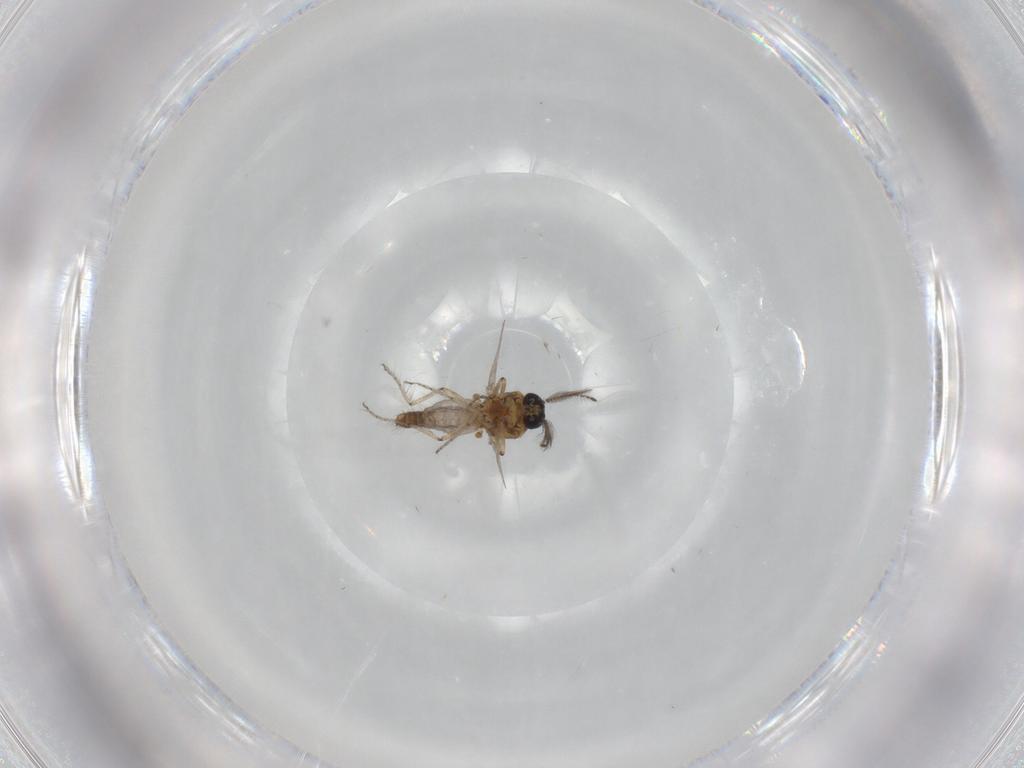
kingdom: Animalia
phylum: Arthropoda
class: Insecta
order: Diptera
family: Ceratopogonidae
